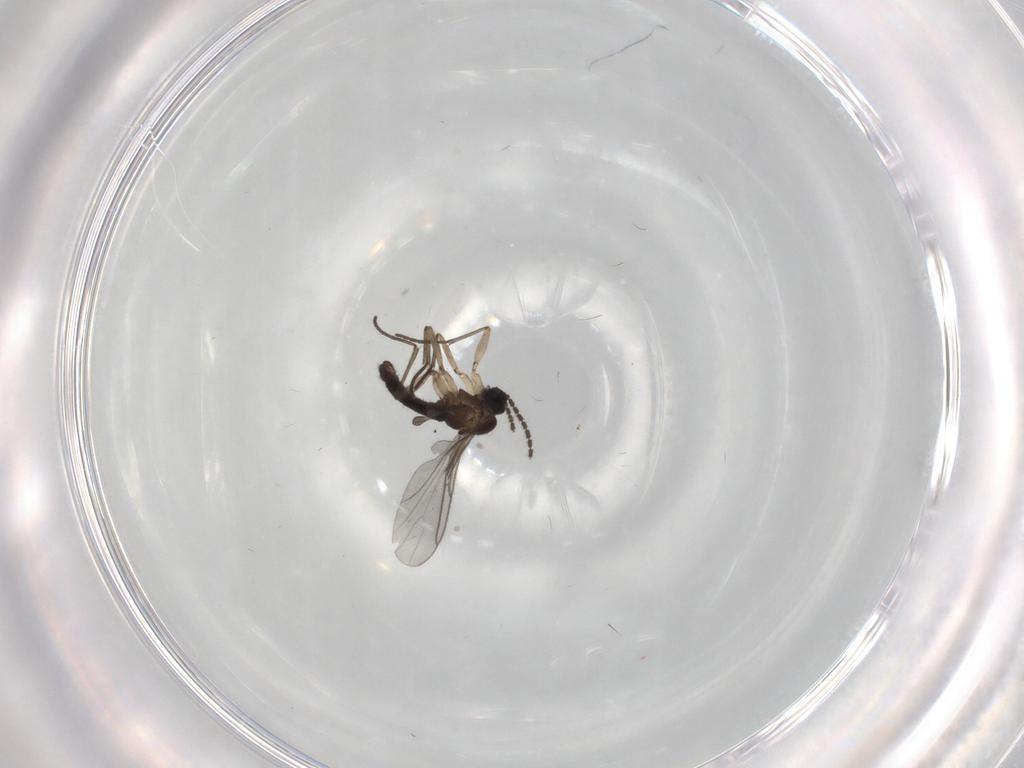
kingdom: Animalia
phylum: Arthropoda
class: Insecta
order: Diptera
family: Sciaridae
